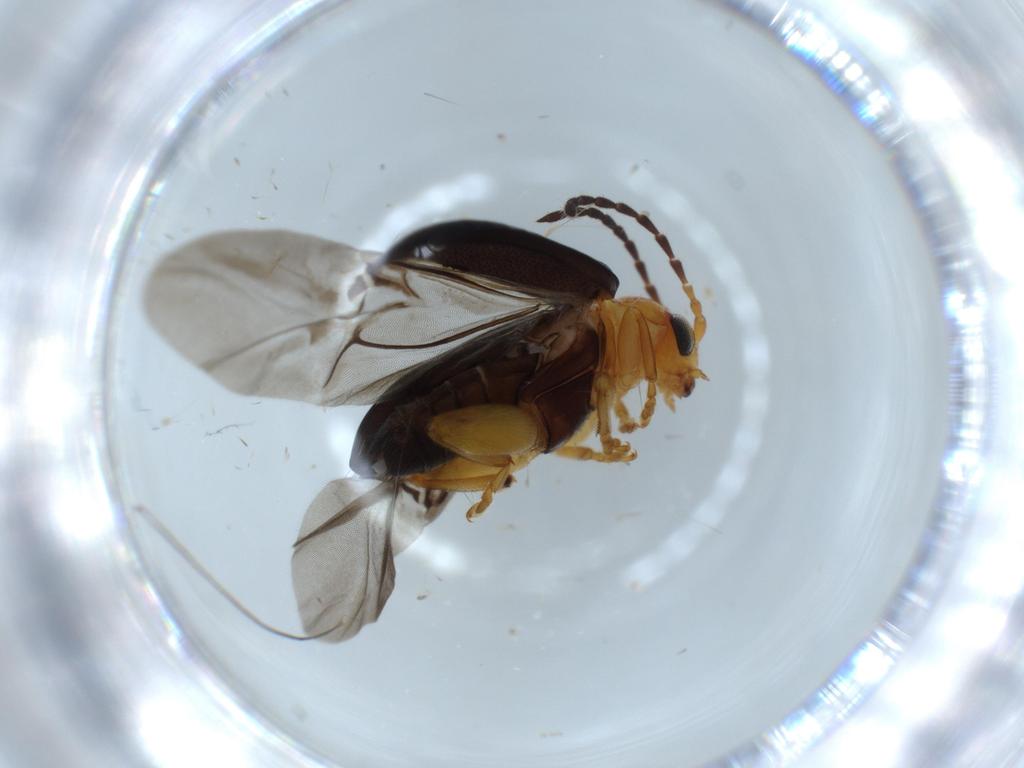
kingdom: Animalia
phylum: Arthropoda
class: Insecta
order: Coleoptera
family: Chrysomelidae
